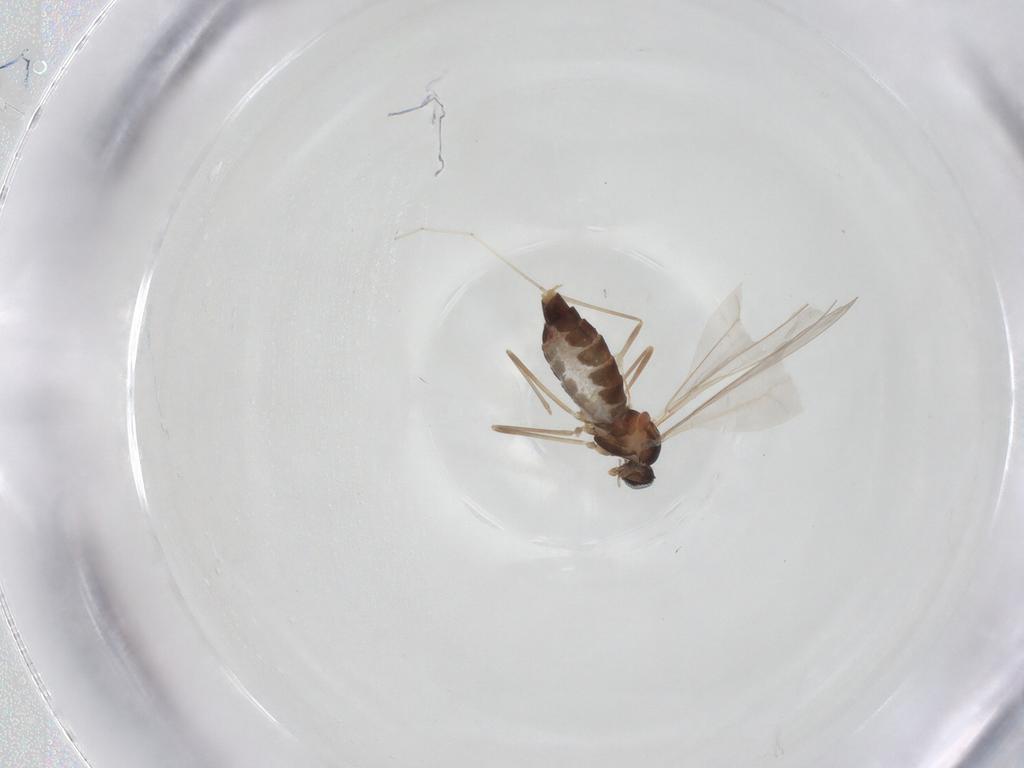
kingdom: Animalia
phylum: Arthropoda
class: Insecta
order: Diptera
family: Cecidomyiidae
